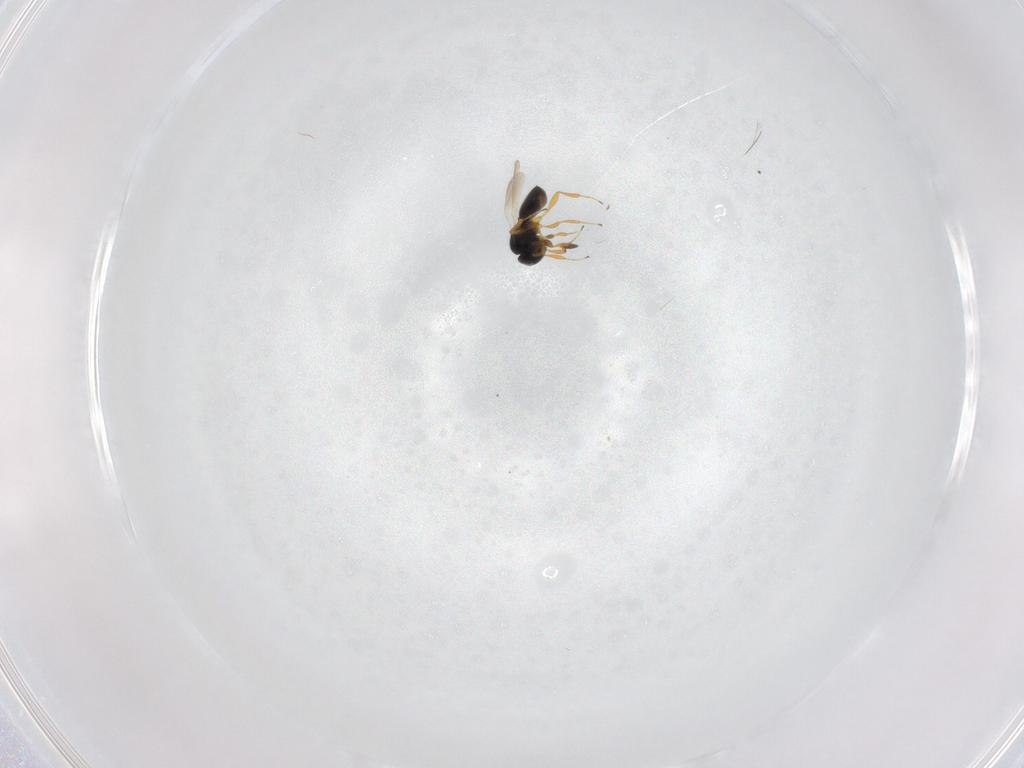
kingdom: Animalia
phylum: Arthropoda
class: Insecta
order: Hymenoptera
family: Platygastridae
